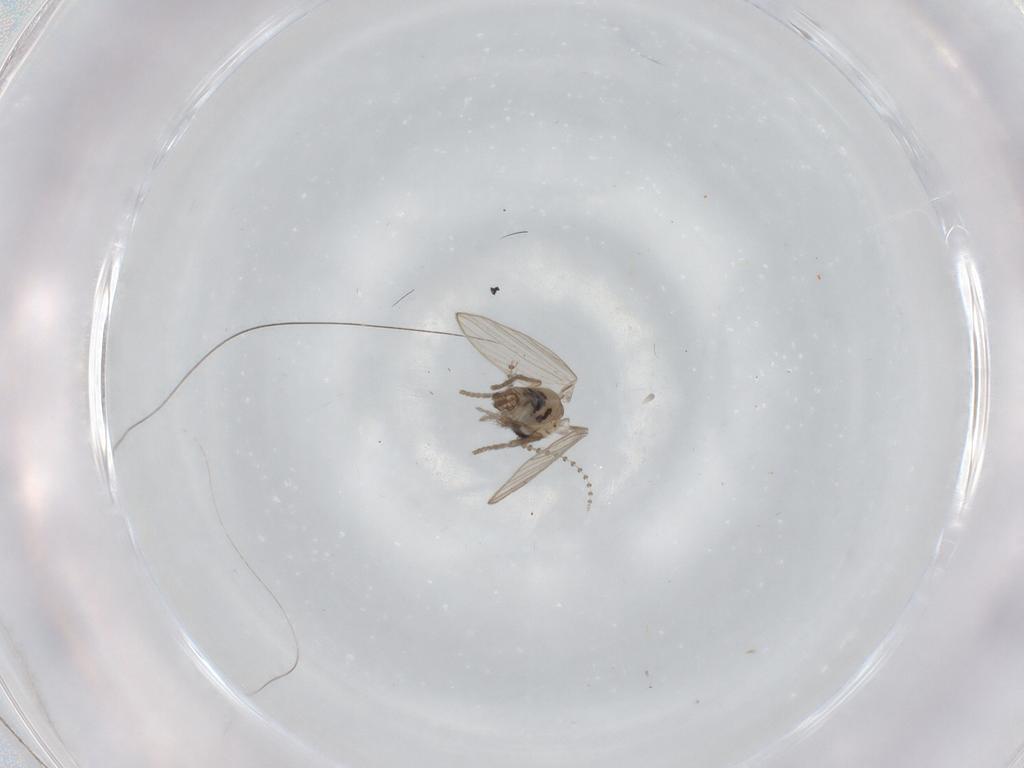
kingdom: Animalia
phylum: Arthropoda
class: Insecta
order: Diptera
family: Psychodidae
